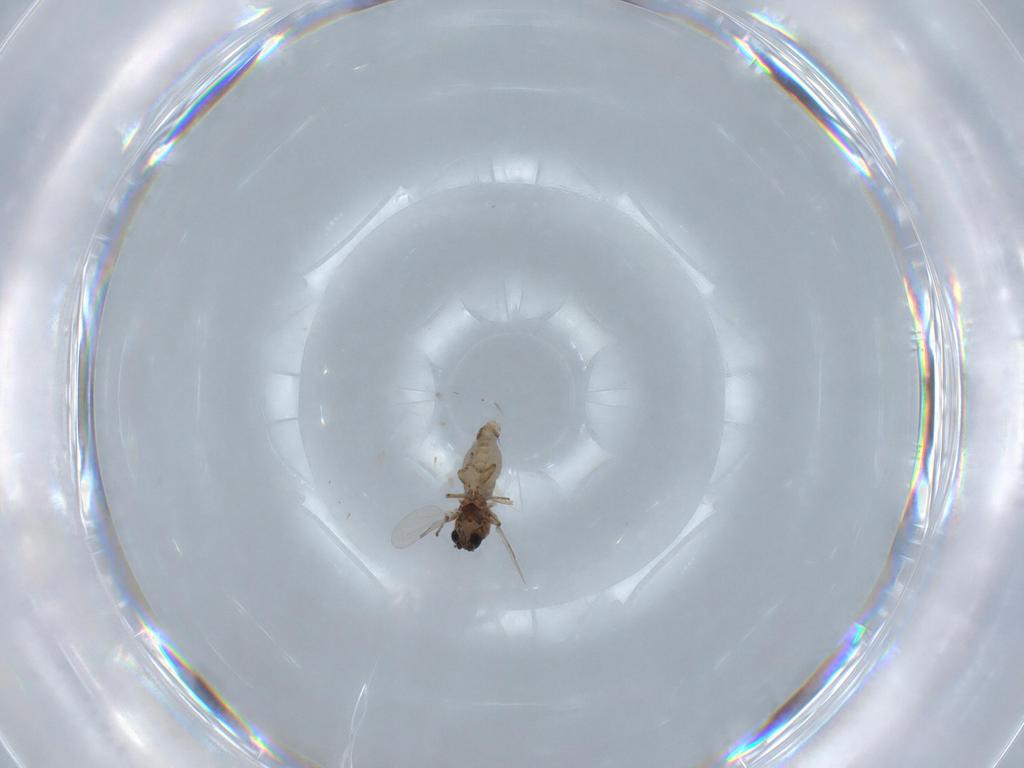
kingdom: Animalia
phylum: Arthropoda
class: Insecta
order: Diptera
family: Ceratopogonidae
